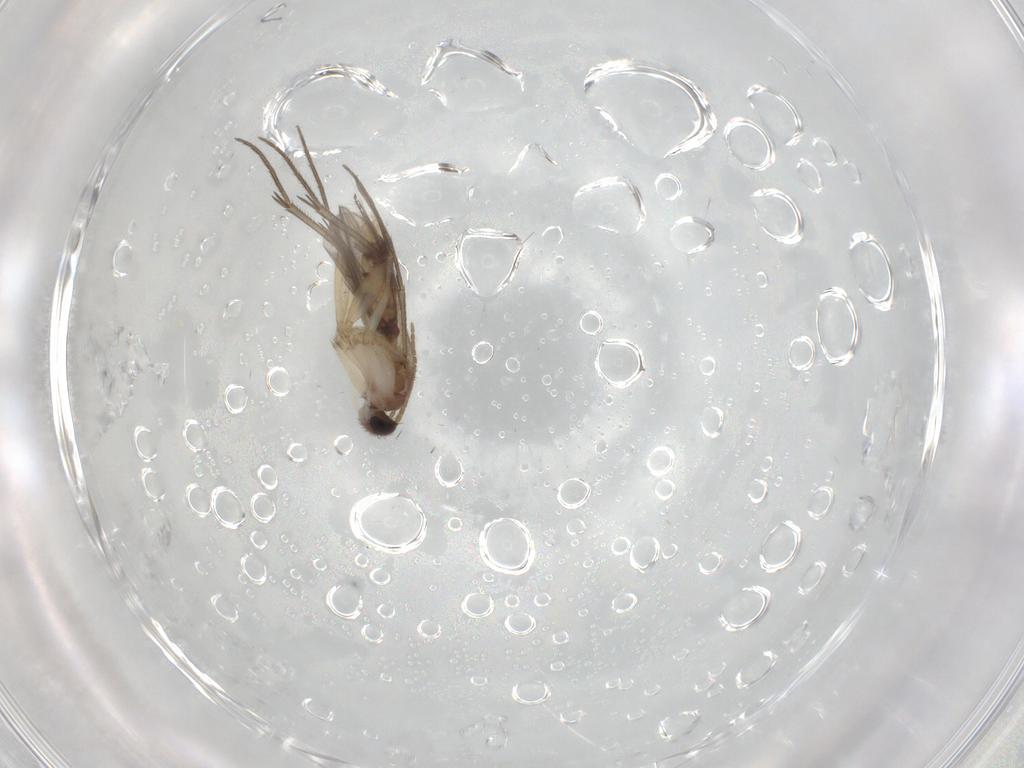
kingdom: Animalia
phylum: Arthropoda
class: Insecta
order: Diptera
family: Mycetophilidae
